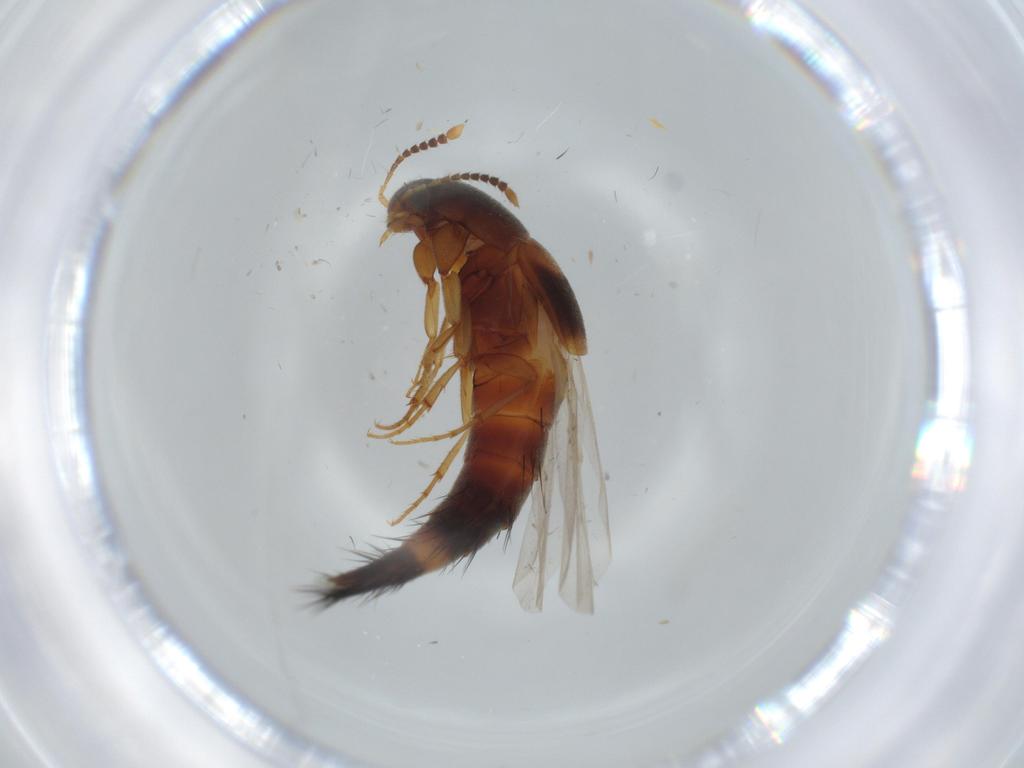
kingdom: Animalia
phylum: Arthropoda
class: Insecta
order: Coleoptera
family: Staphylinidae
